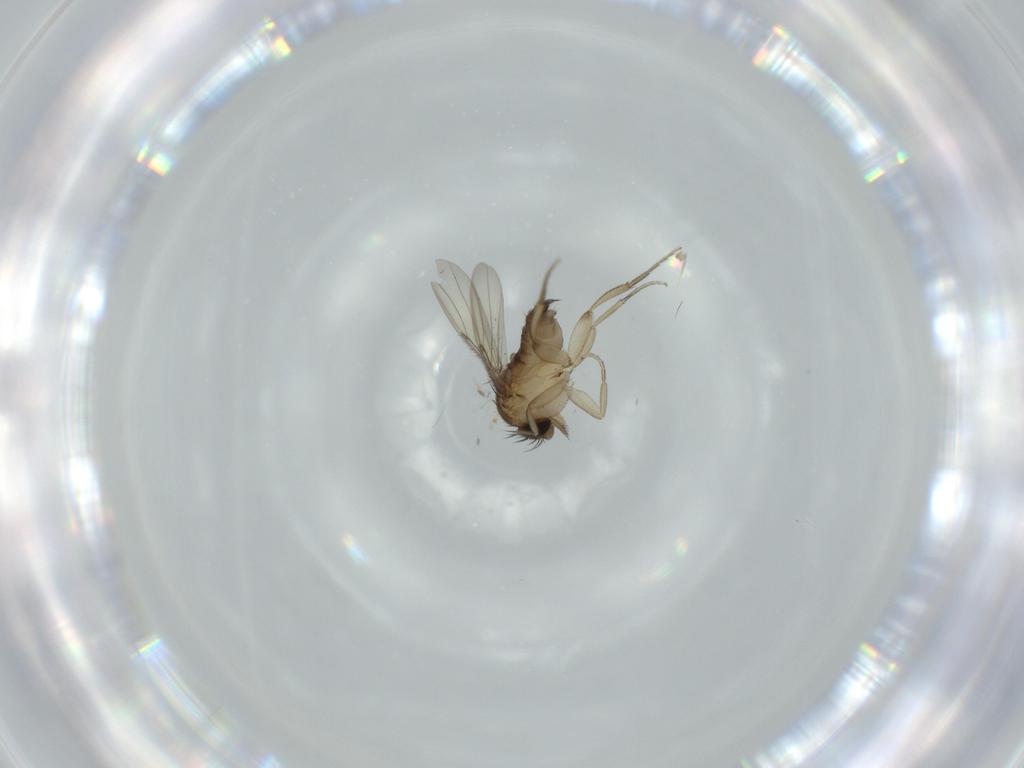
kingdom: Animalia
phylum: Arthropoda
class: Insecta
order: Diptera
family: Phoridae
